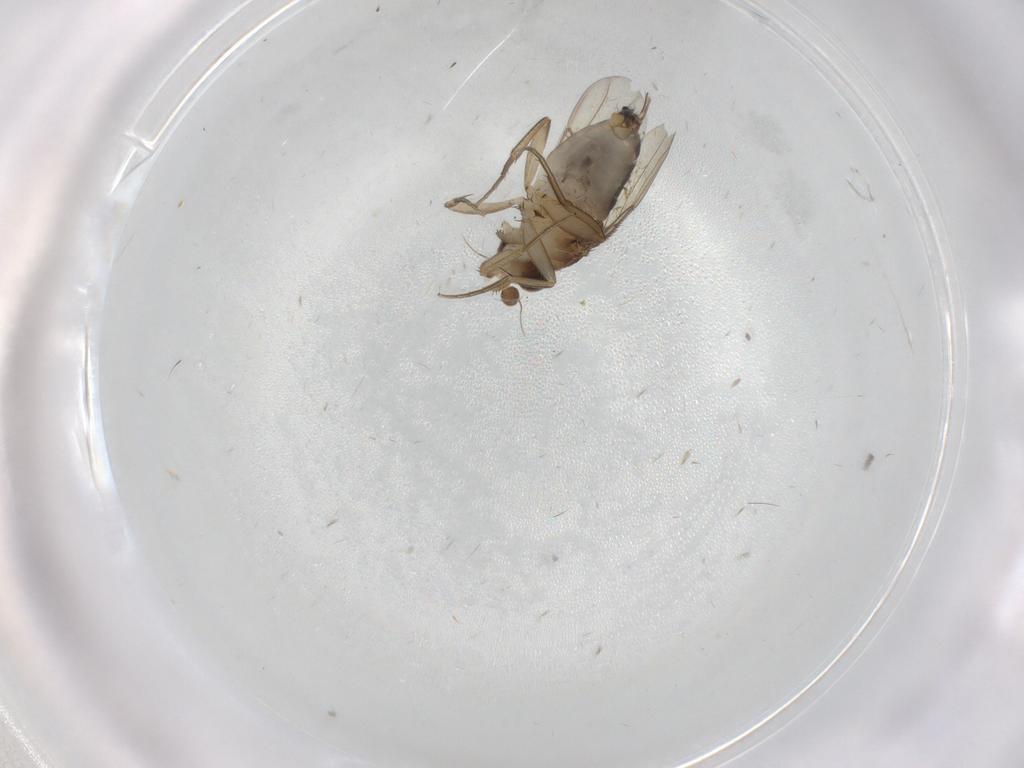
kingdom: Animalia
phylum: Arthropoda
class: Insecta
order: Diptera
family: Phoridae
